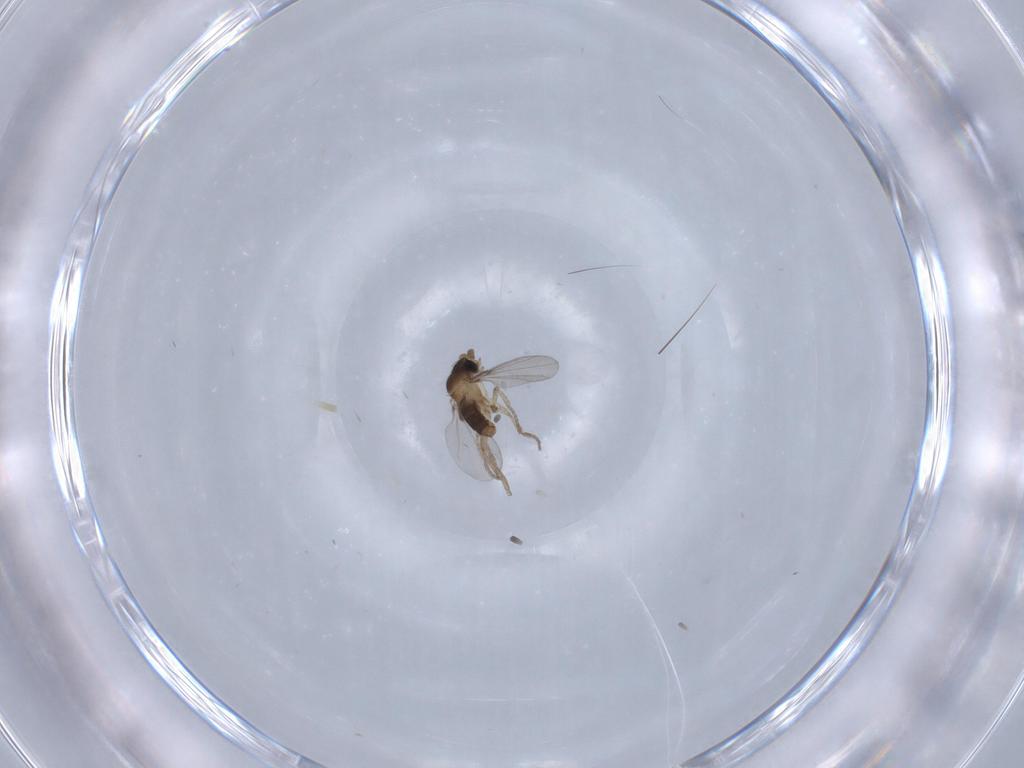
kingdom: Animalia
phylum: Arthropoda
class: Insecta
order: Diptera
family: Phoridae
